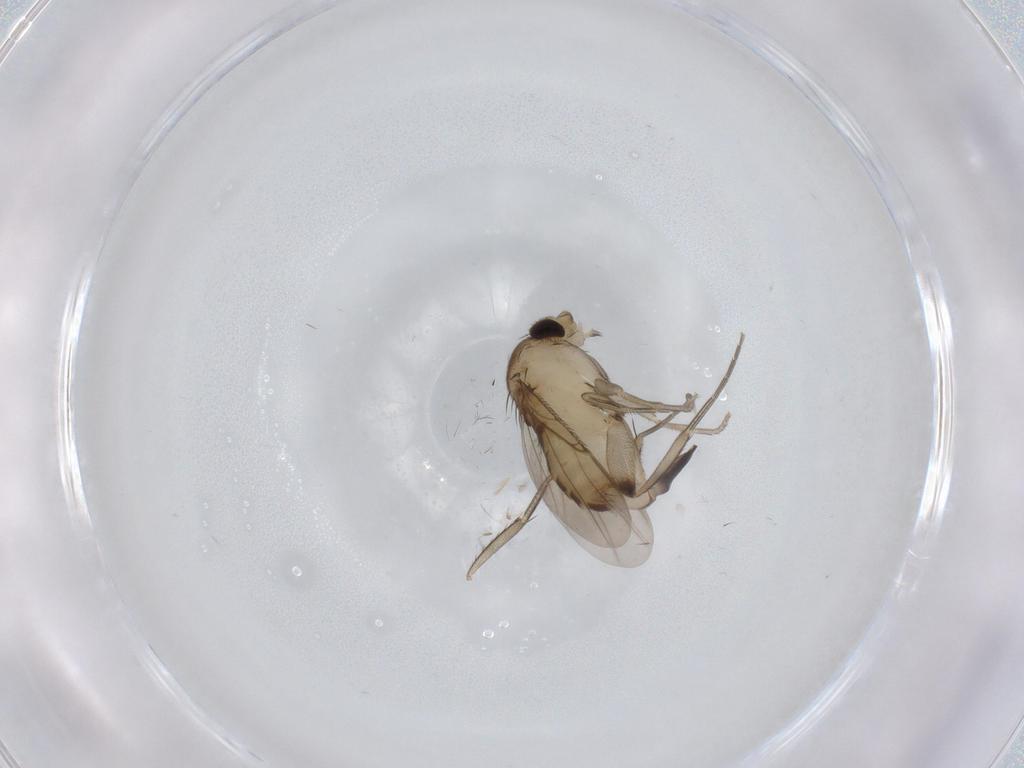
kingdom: Animalia
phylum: Arthropoda
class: Insecta
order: Diptera
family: Phoridae
